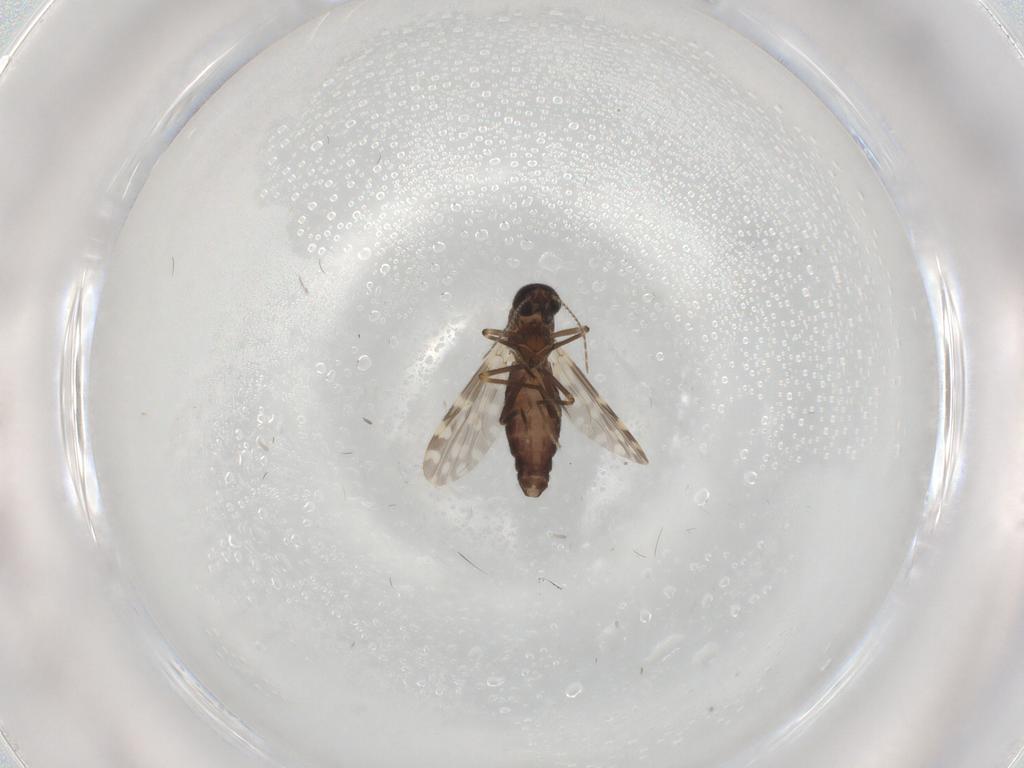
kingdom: Animalia
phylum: Arthropoda
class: Insecta
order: Diptera
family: Ceratopogonidae
